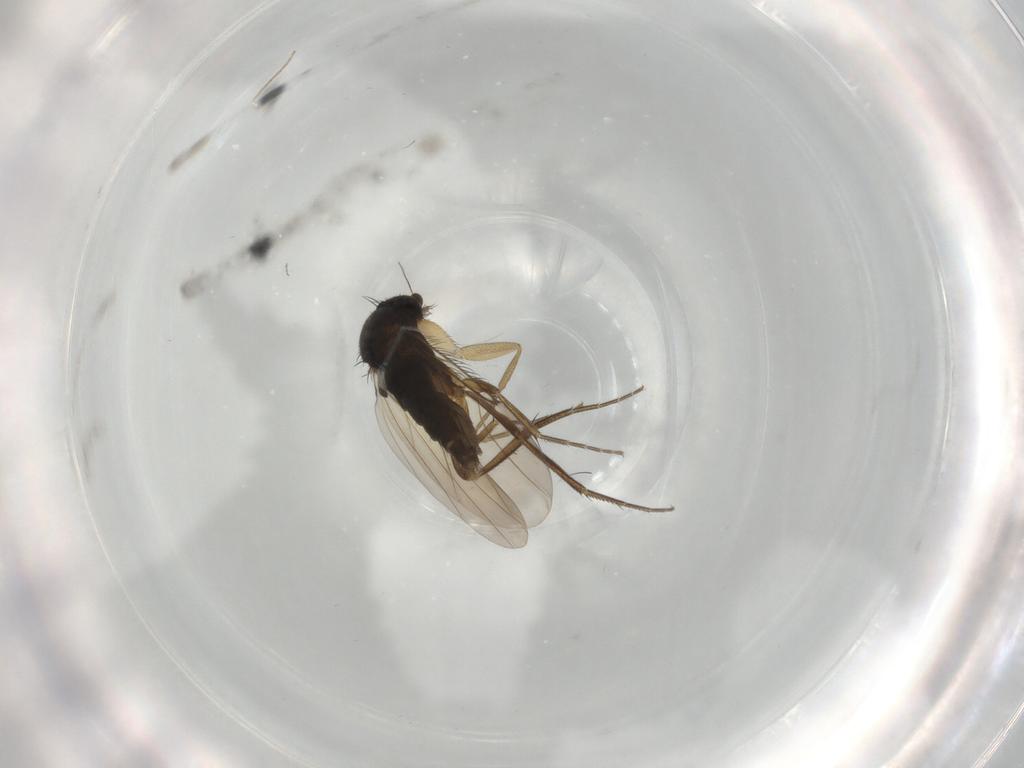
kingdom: Animalia
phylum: Arthropoda
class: Insecta
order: Diptera
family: Phoridae
